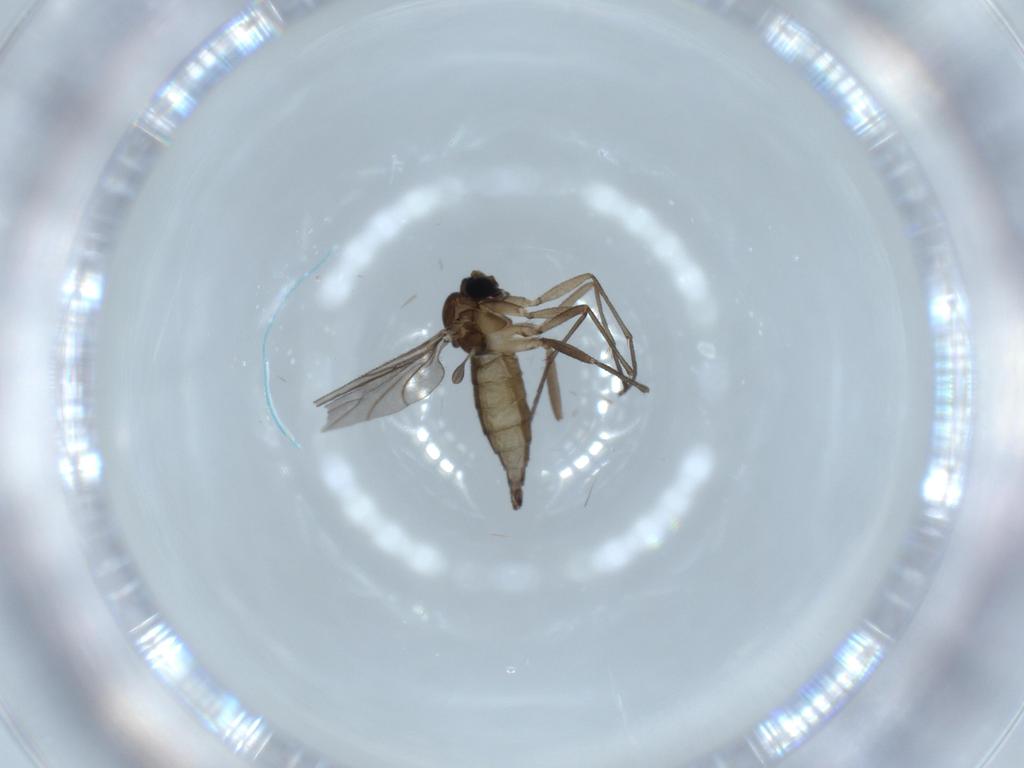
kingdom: Animalia
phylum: Arthropoda
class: Insecta
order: Diptera
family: Sciaridae
